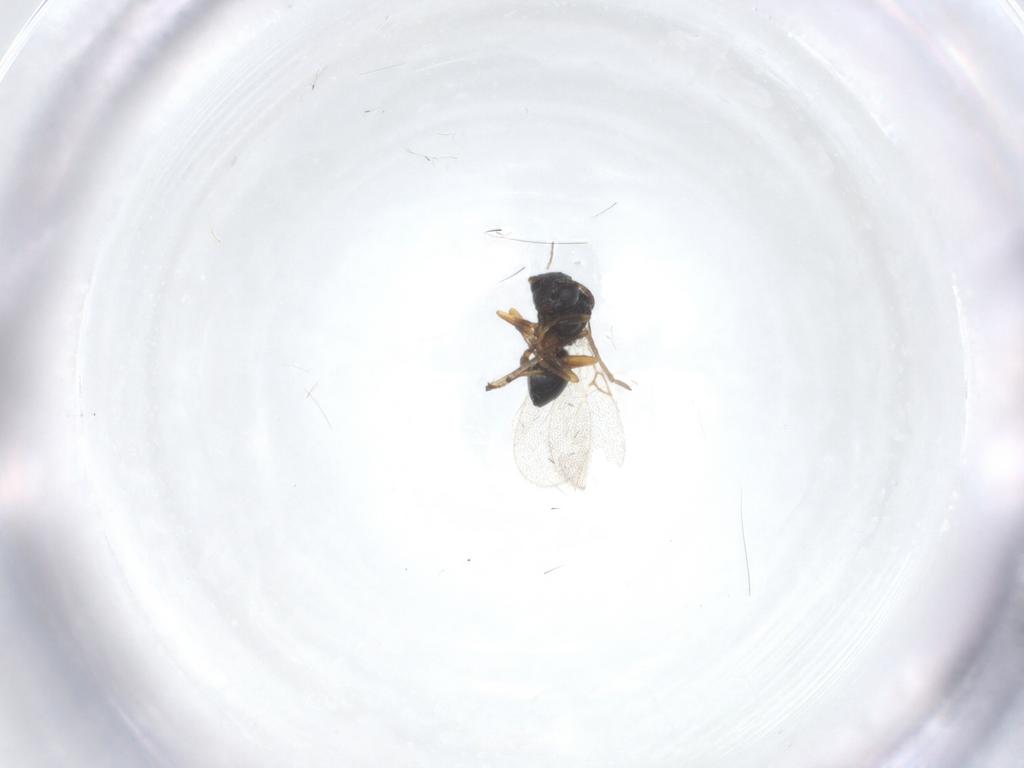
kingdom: Animalia
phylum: Arthropoda
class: Insecta
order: Hymenoptera
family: Figitidae
